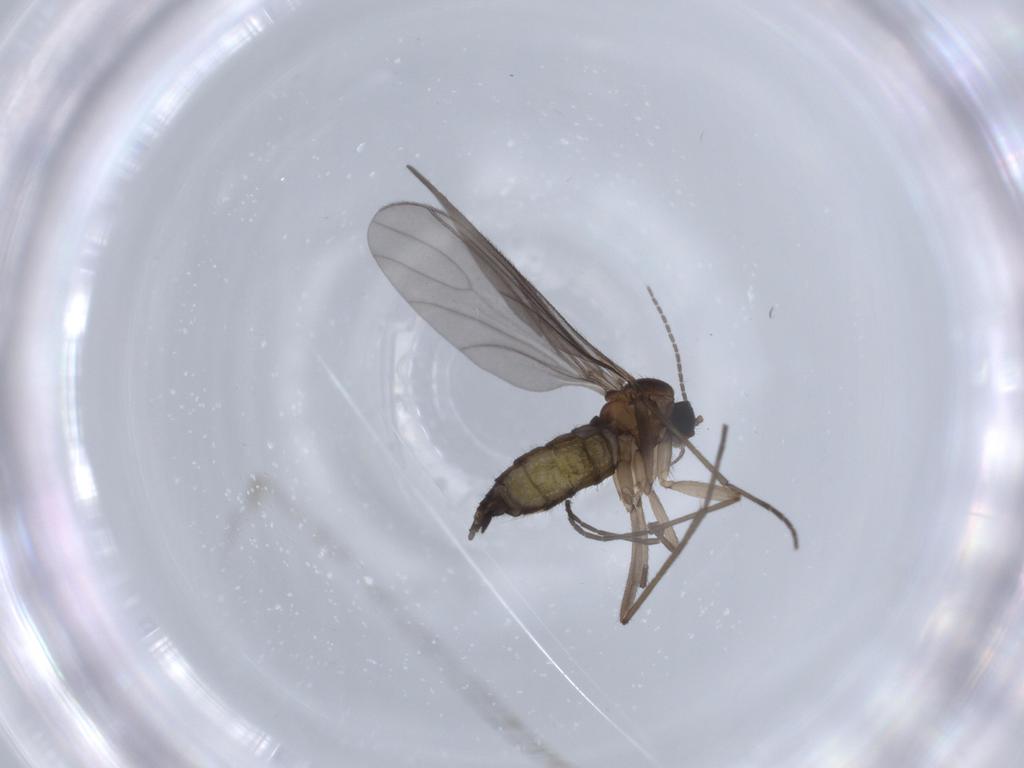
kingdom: Animalia
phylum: Arthropoda
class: Insecta
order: Diptera
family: Sciaridae
